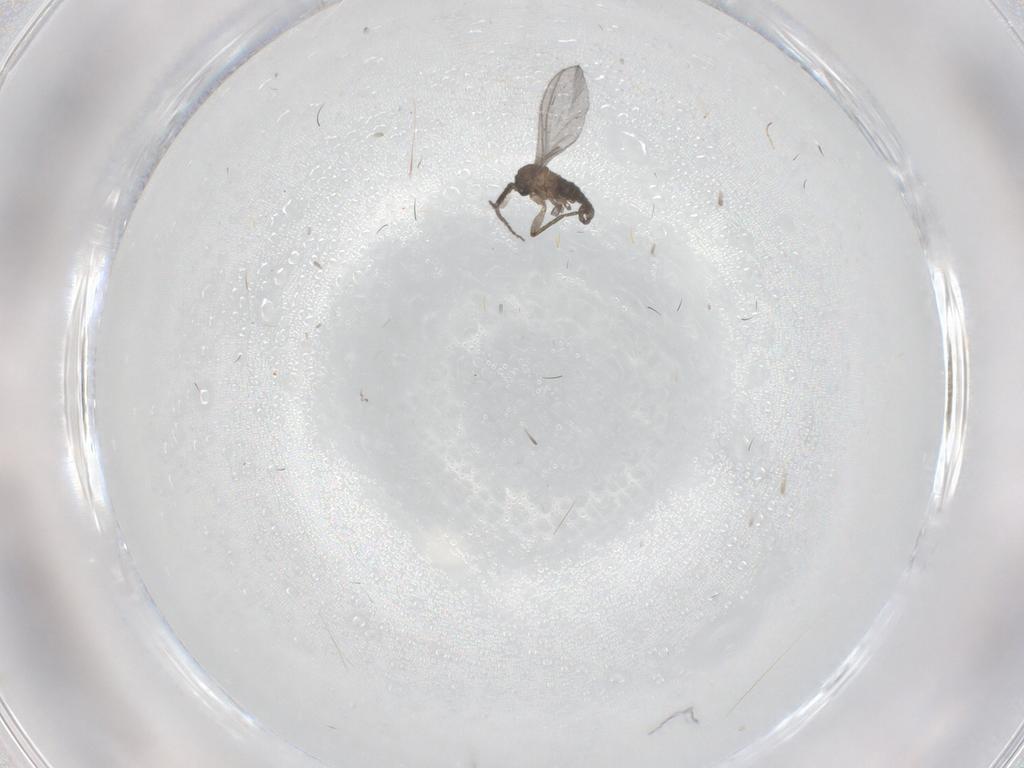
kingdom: Animalia
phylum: Arthropoda
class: Insecta
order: Diptera
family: Sciaridae
